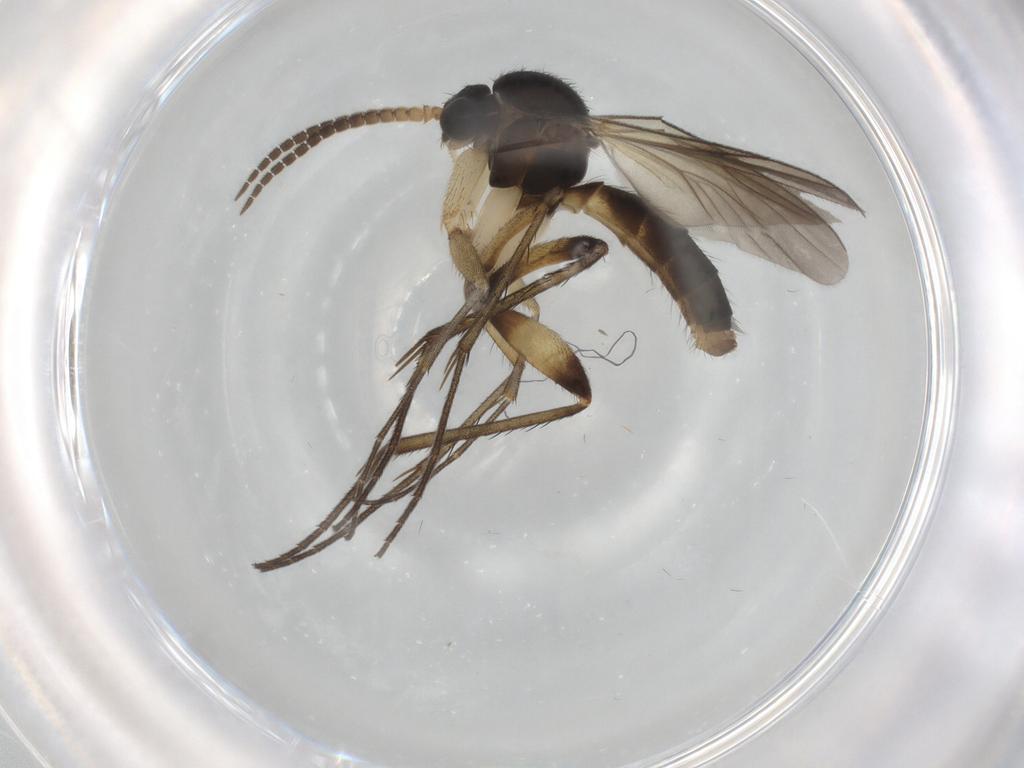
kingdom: Animalia
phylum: Arthropoda
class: Insecta
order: Diptera
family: Mycetophilidae
